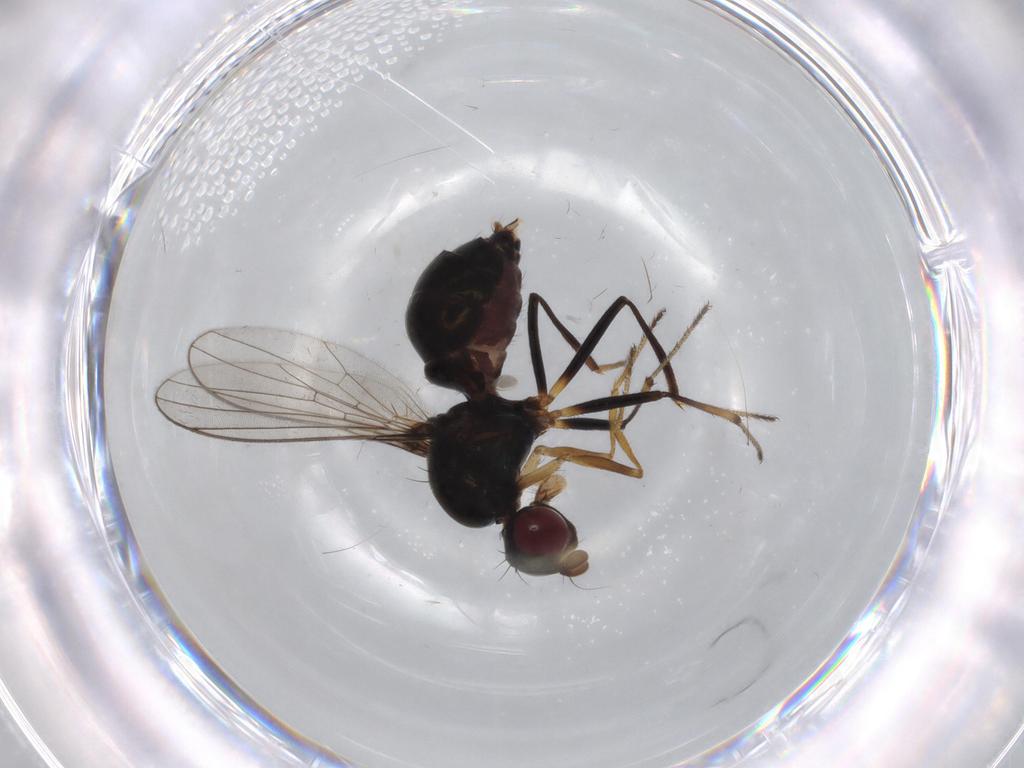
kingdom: Animalia
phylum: Arthropoda
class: Insecta
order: Diptera
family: Sepsidae
